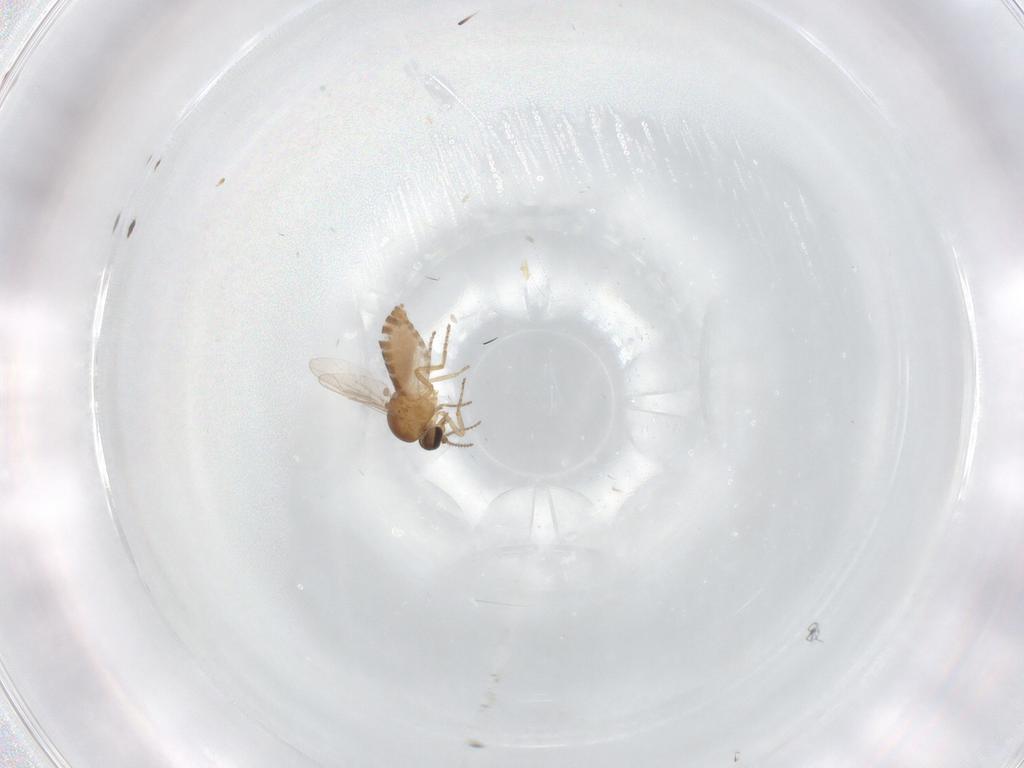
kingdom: Animalia
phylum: Arthropoda
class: Insecta
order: Diptera
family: Ceratopogonidae
